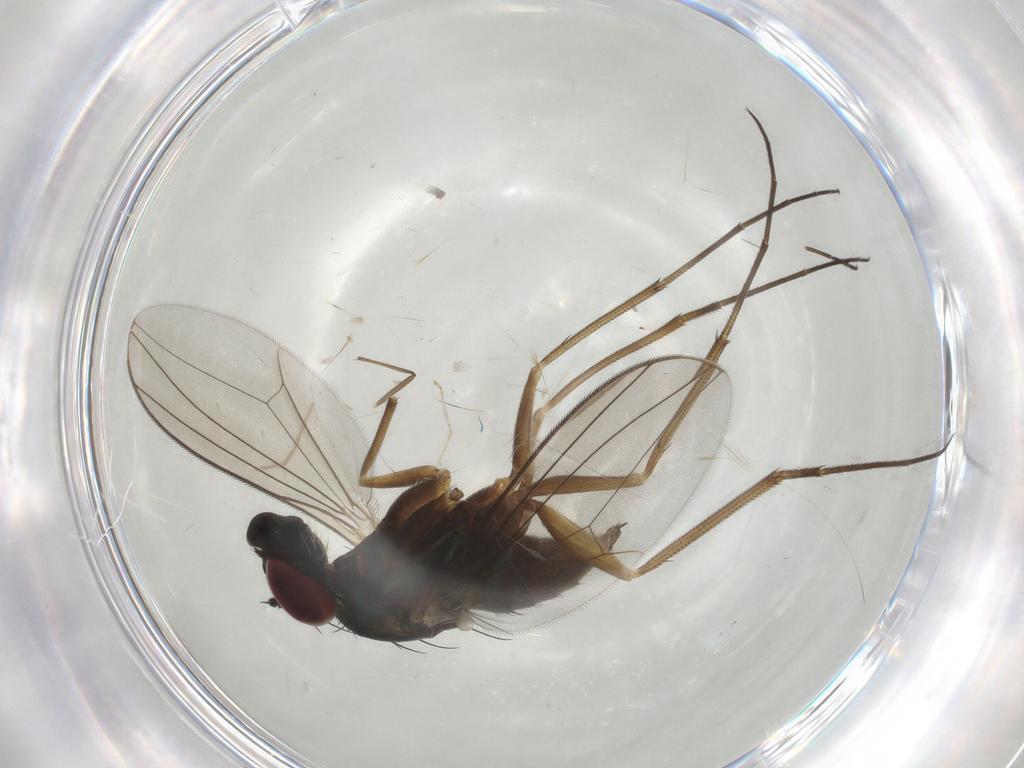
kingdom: Animalia
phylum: Arthropoda
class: Insecta
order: Diptera
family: Dolichopodidae
